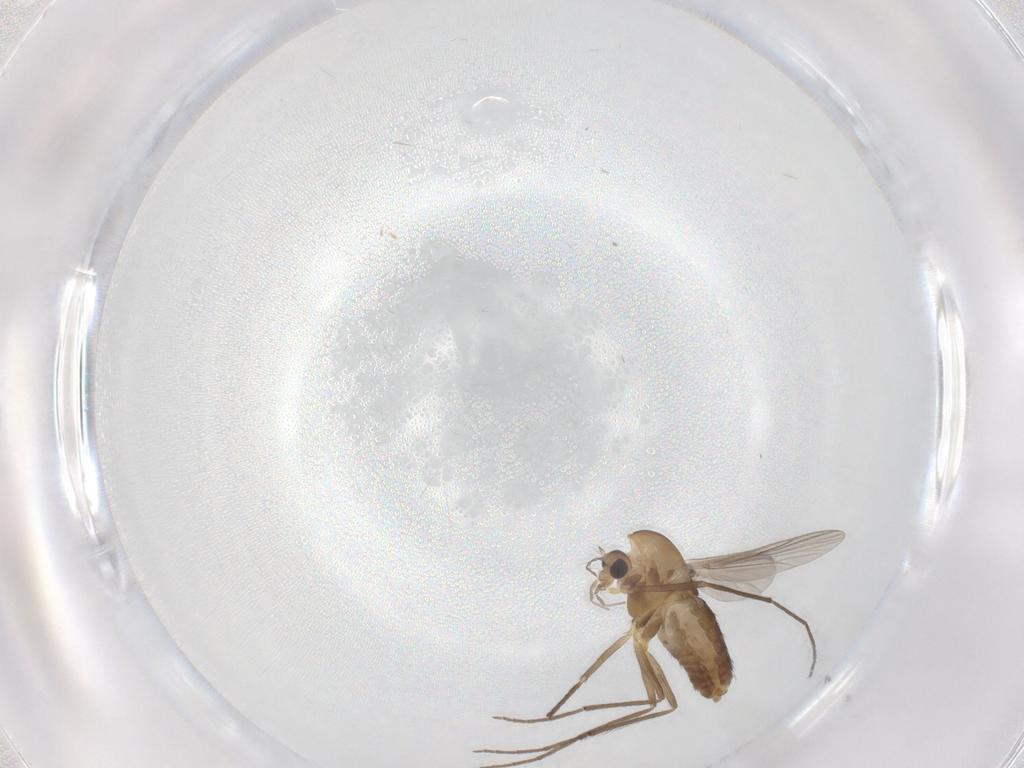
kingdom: Animalia
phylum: Arthropoda
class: Insecta
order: Diptera
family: Chironomidae
